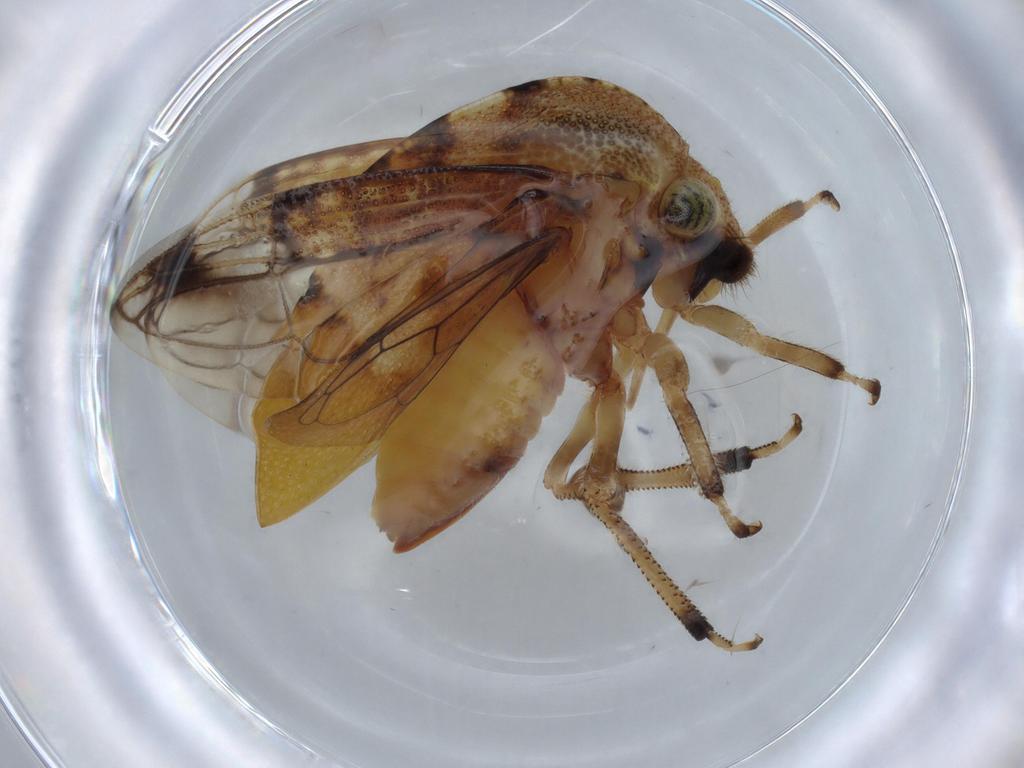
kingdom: Animalia
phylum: Arthropoda
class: Insecta
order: Hemiptera
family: Membracidae
